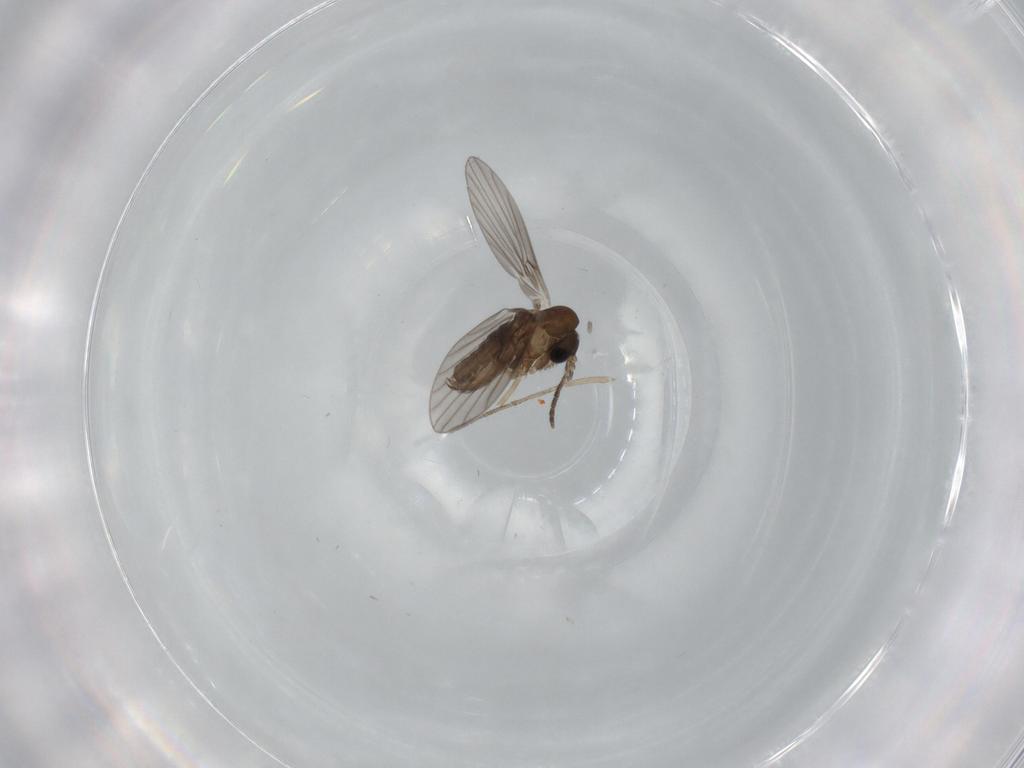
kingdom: Animalia
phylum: Arthropoda
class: Insecta
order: Diptera
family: Psychodidae
